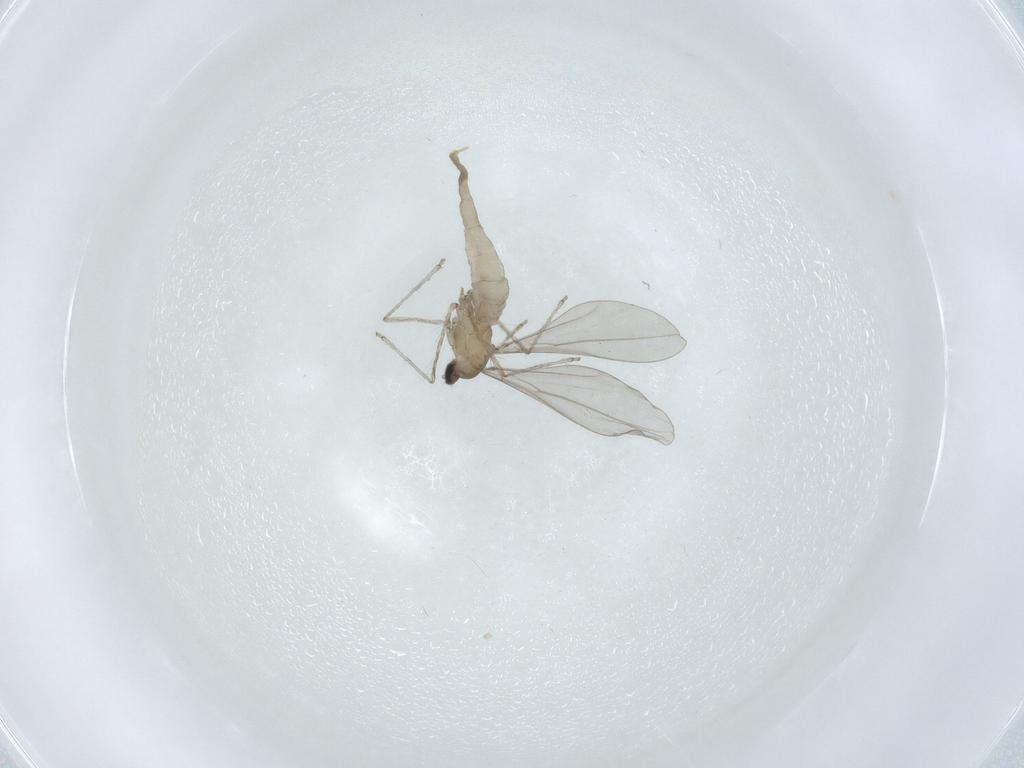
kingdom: Animalia
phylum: Arthropoda
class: Insecta
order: Diptera
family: Cecidomyiidae
